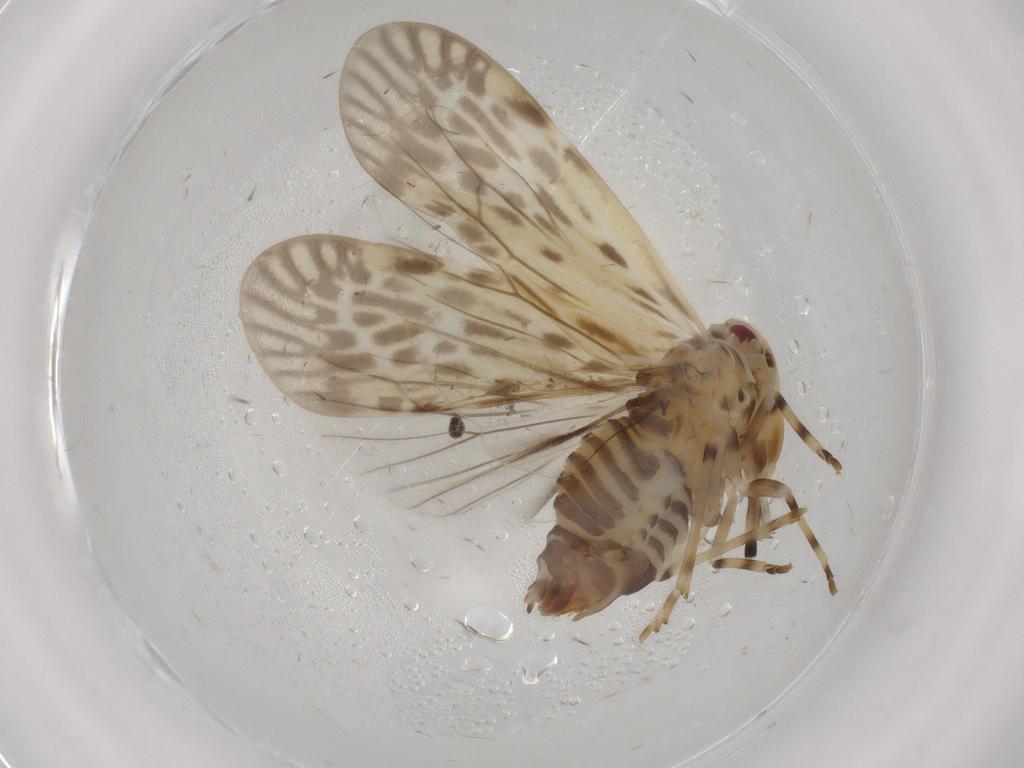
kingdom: Animalia
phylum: Arthropoda
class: Insecta
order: Hemiptera
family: Derbidae
